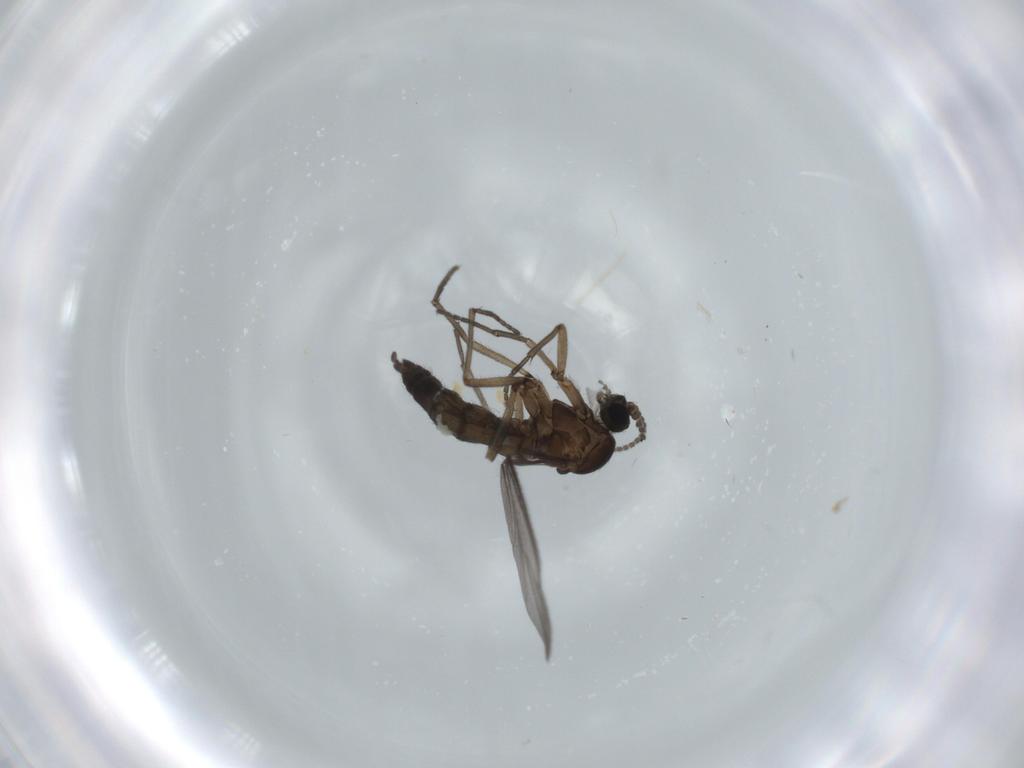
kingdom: Animalia
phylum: Arthropoda
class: Insecta
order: Diptera
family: Sciaridae
